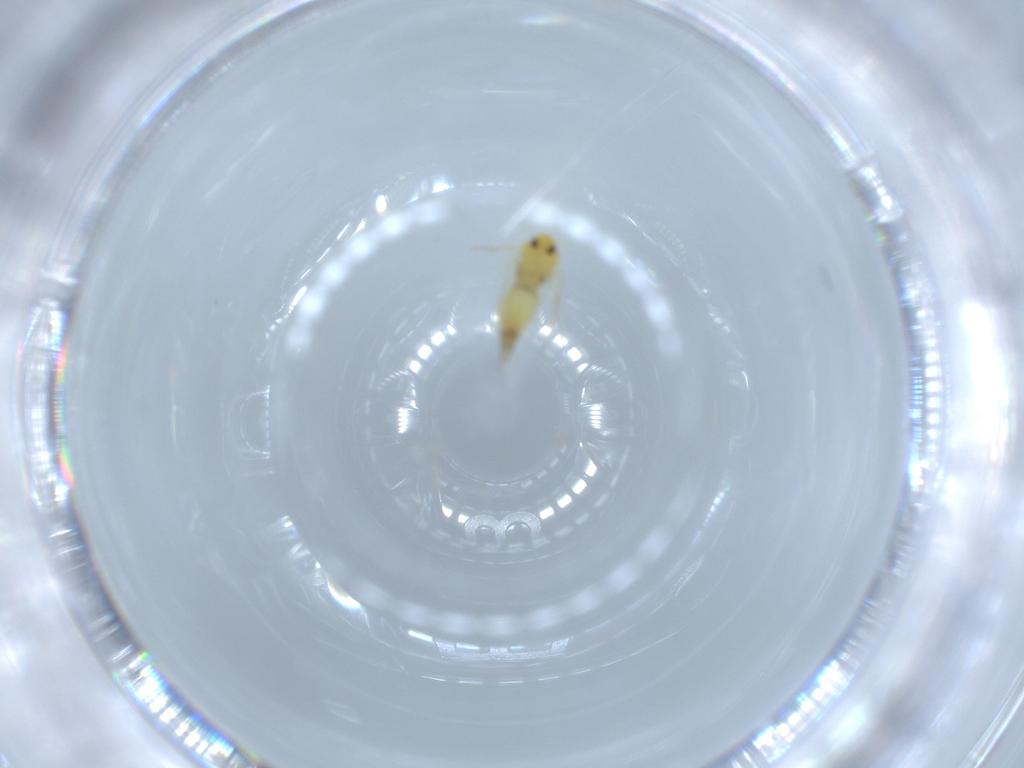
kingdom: Animalia
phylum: Arthropoda
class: Insecta
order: Hemiptera
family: Aleyrodidae
